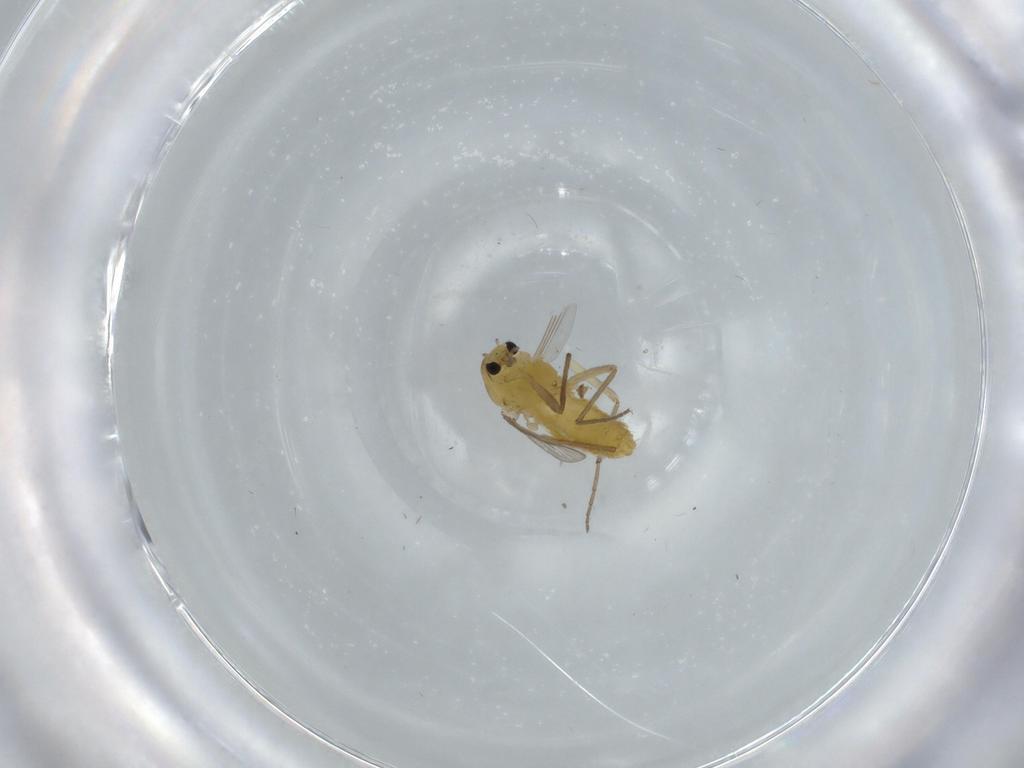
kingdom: Animalia
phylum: Arthropoda
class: Insecta
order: Diptera
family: Chironomidae
